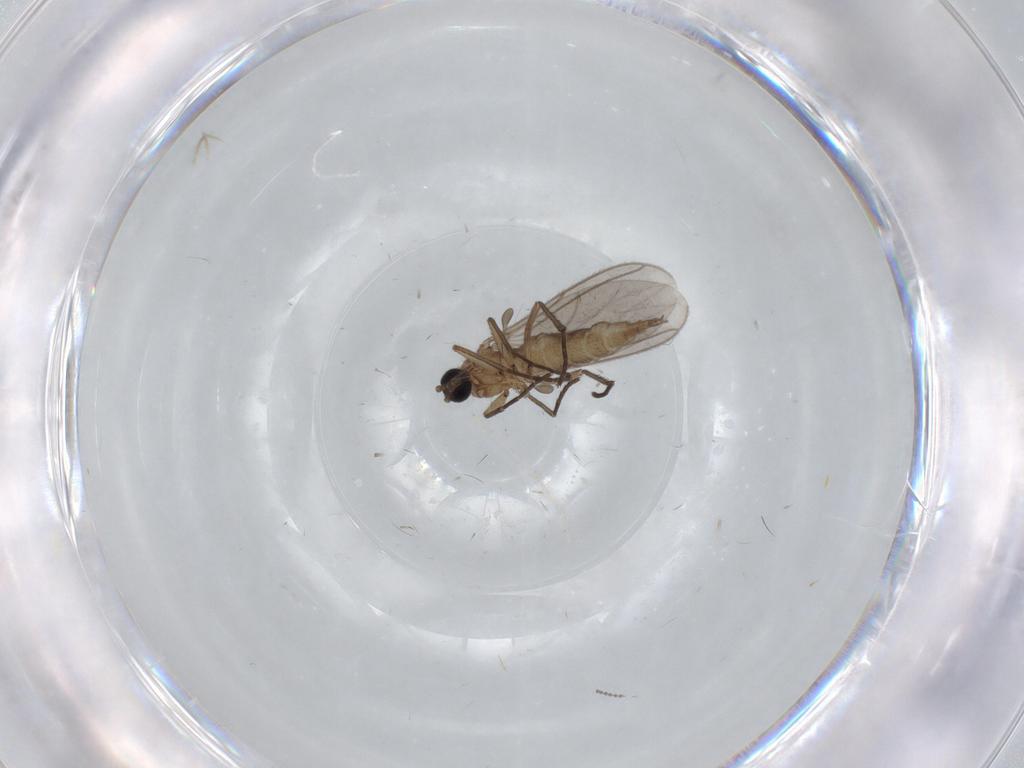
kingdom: Animalia
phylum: Arthropoda
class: Insecta
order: Diptera
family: Sciaridae
